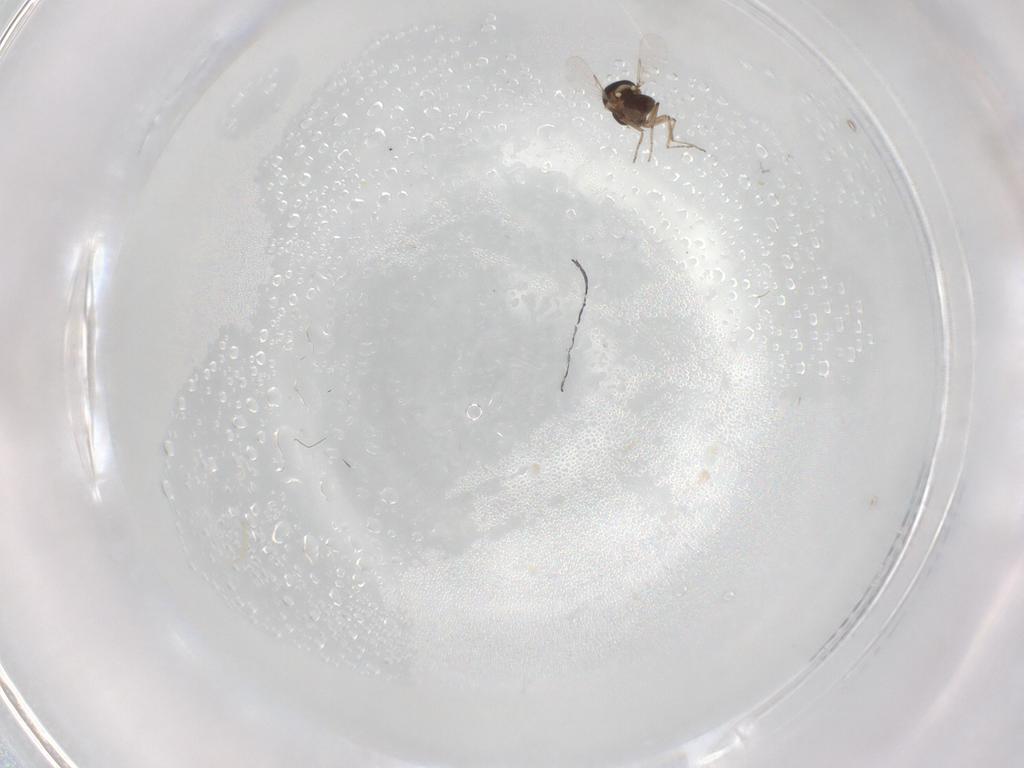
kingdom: Animalia
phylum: Arthropoda
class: Insecta
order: Diptera
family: Ceratopogonidae
